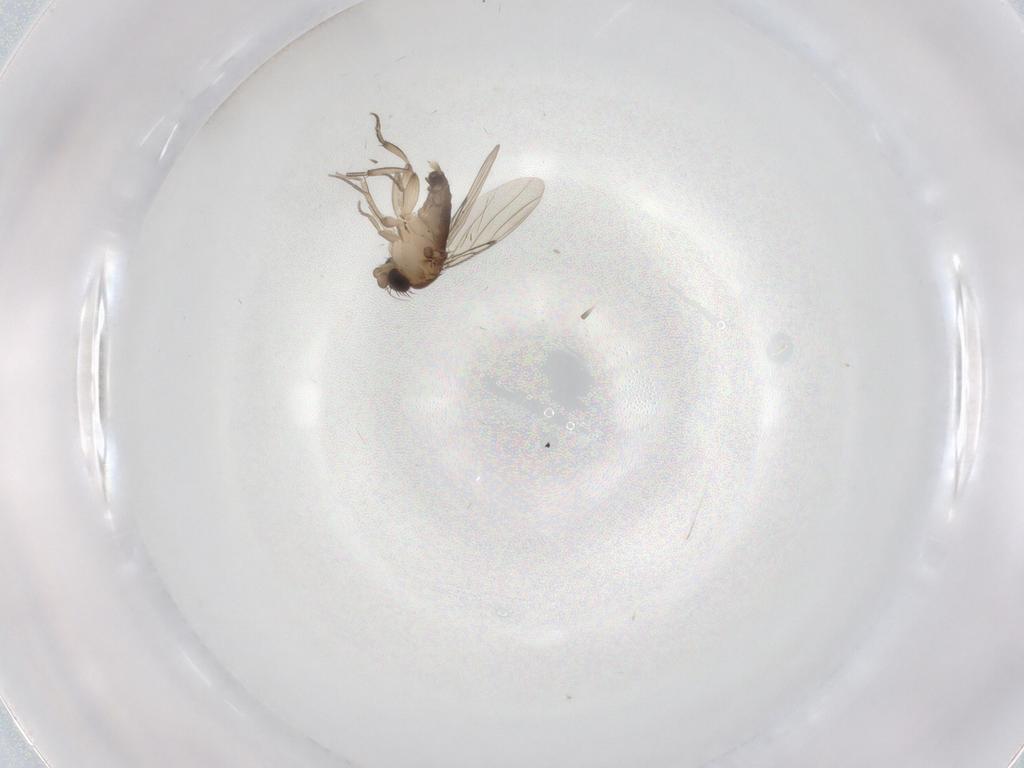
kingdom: Animalia
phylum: Arthropoda
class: Insecta
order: Diptera
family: Phoridae
